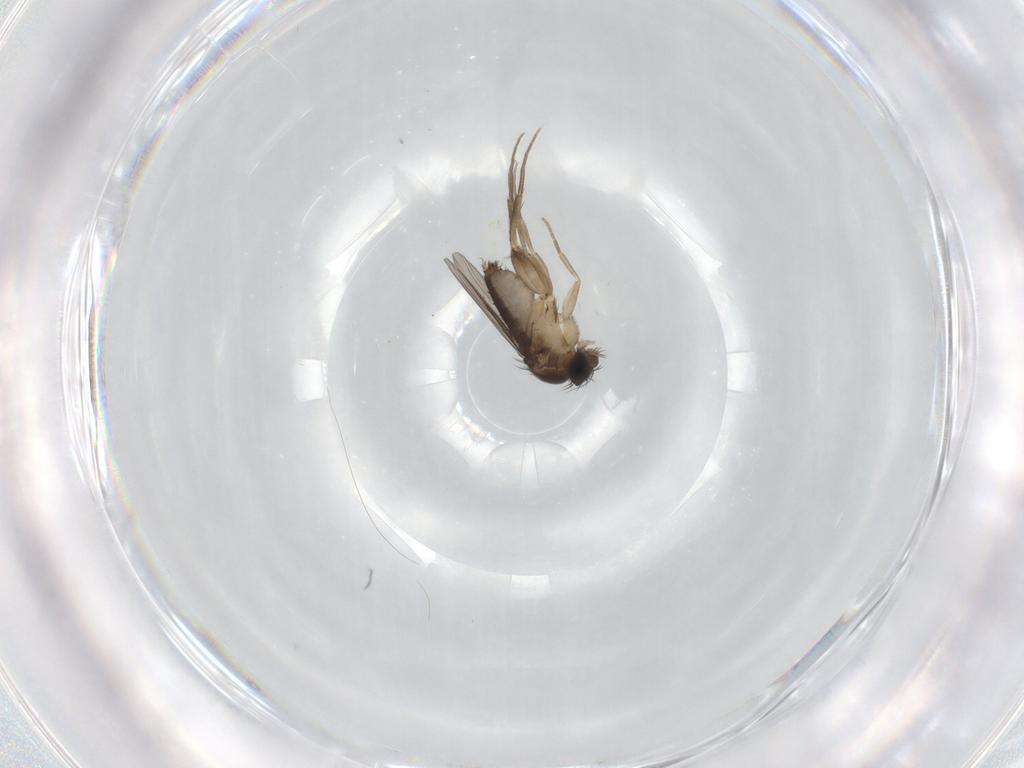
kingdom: Animalia
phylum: Arthropoda
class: Insecta
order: Diptera
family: Phoridae
